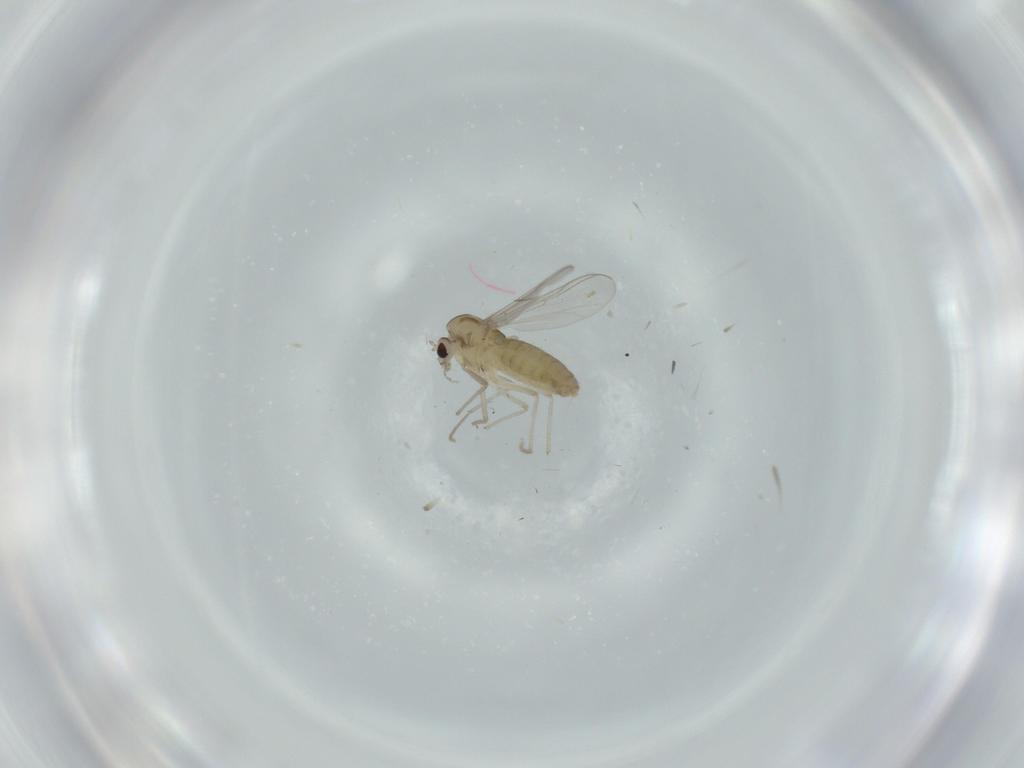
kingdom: Animalia
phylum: Arthropoda
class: Insecta
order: Diptera
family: Chironomidae
